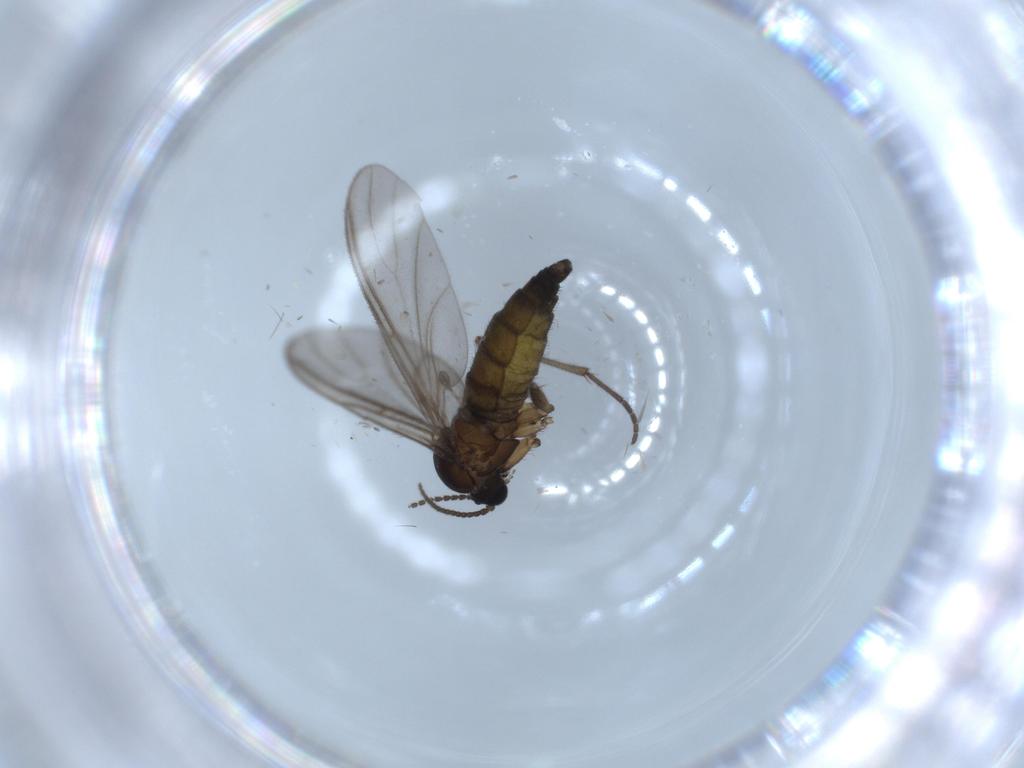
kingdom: Animalia
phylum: Arthropoda
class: Insecta
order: Diptera
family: Sciaridae
